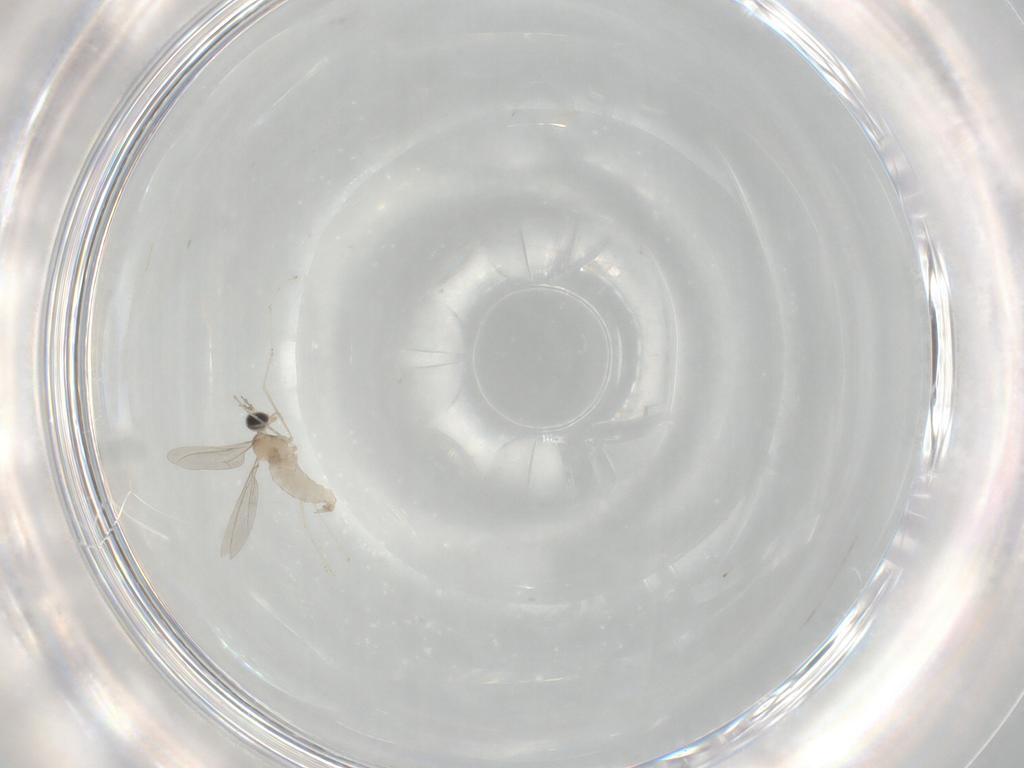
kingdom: Animalia
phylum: Arthropoda
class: Insecta
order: Diptera
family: Cecidomyiidae
